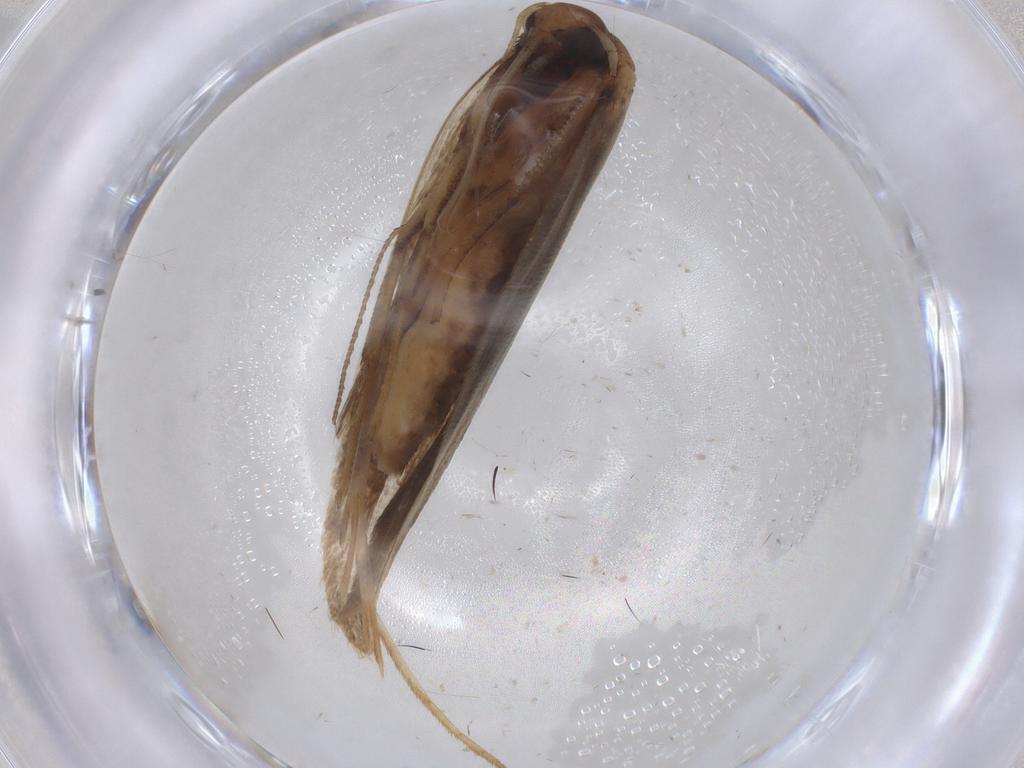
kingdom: Animalia
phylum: Arthropoda
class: Insecta
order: Lepidoptera
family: Gelechiidae
